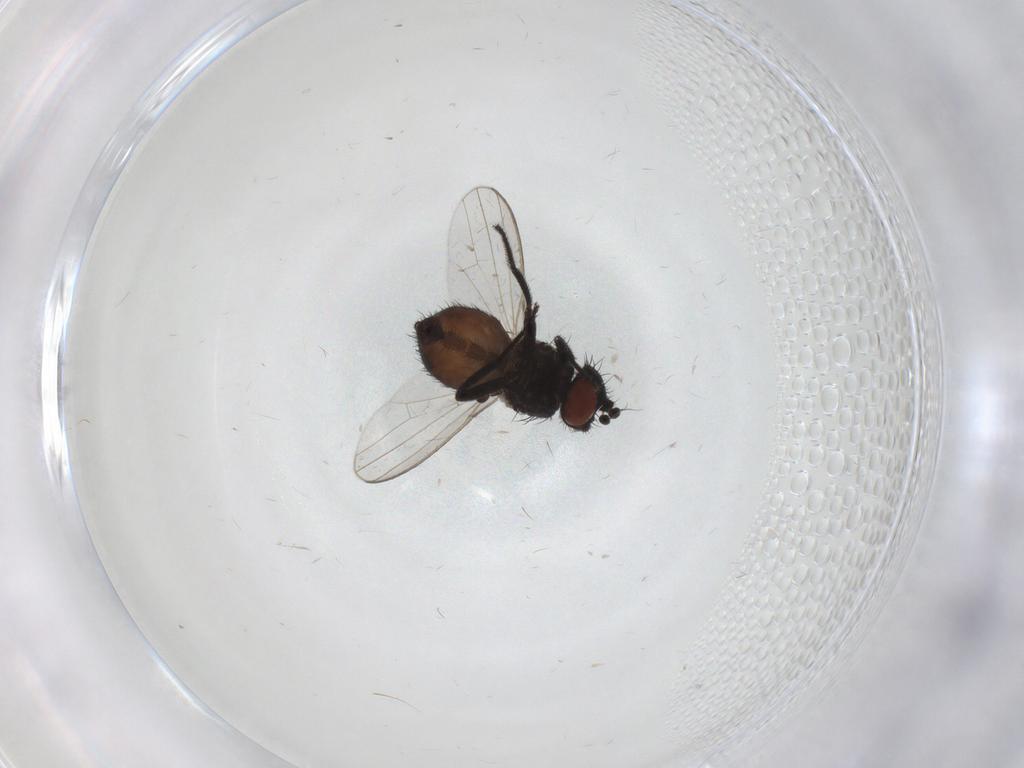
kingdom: Animalia
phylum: Arthropoda
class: Insecta
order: Diptera
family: Milichiidae
